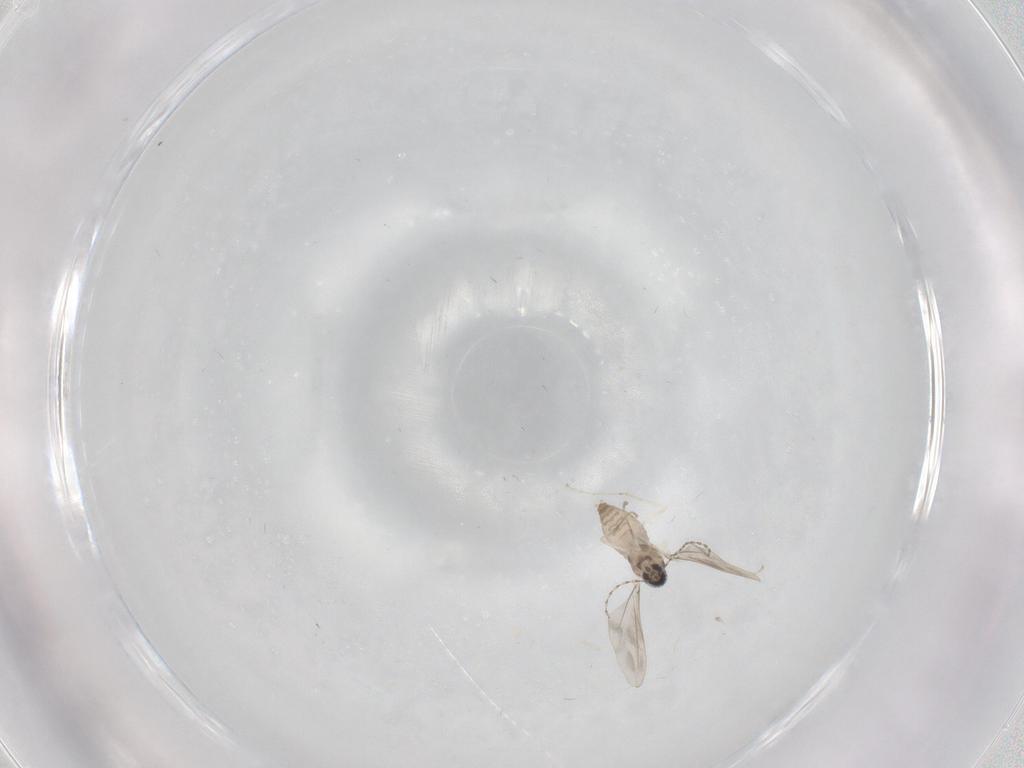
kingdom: Animalia
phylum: Arthropoda
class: Insecta
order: Diptera
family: Cecidomyiidae
